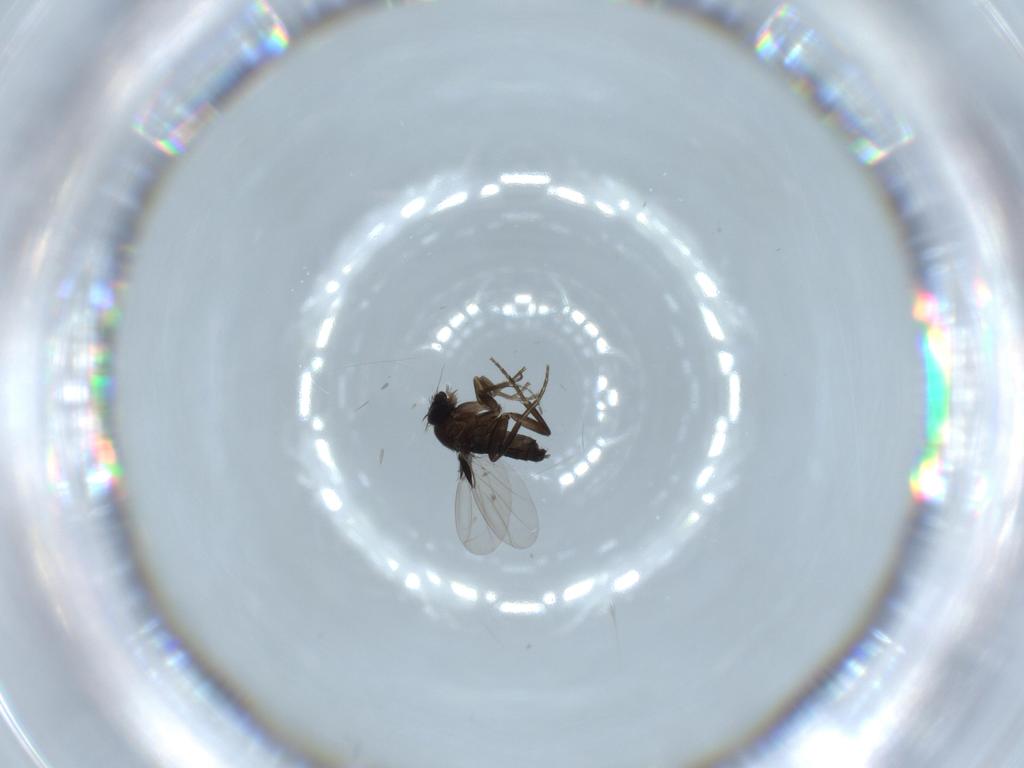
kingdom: Animalia
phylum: Arthropoda
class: Insecta
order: Diptera
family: Phoridae
